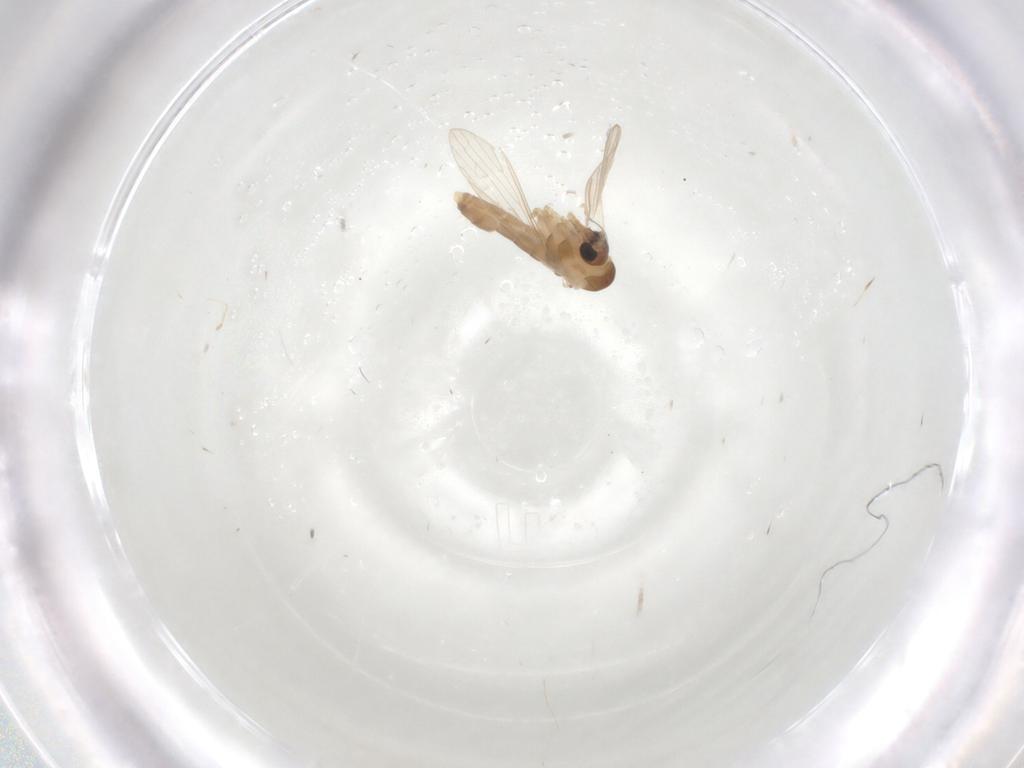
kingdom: Animalia
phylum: Arthropoda
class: Insecta
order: Diptera
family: Psychodidae
